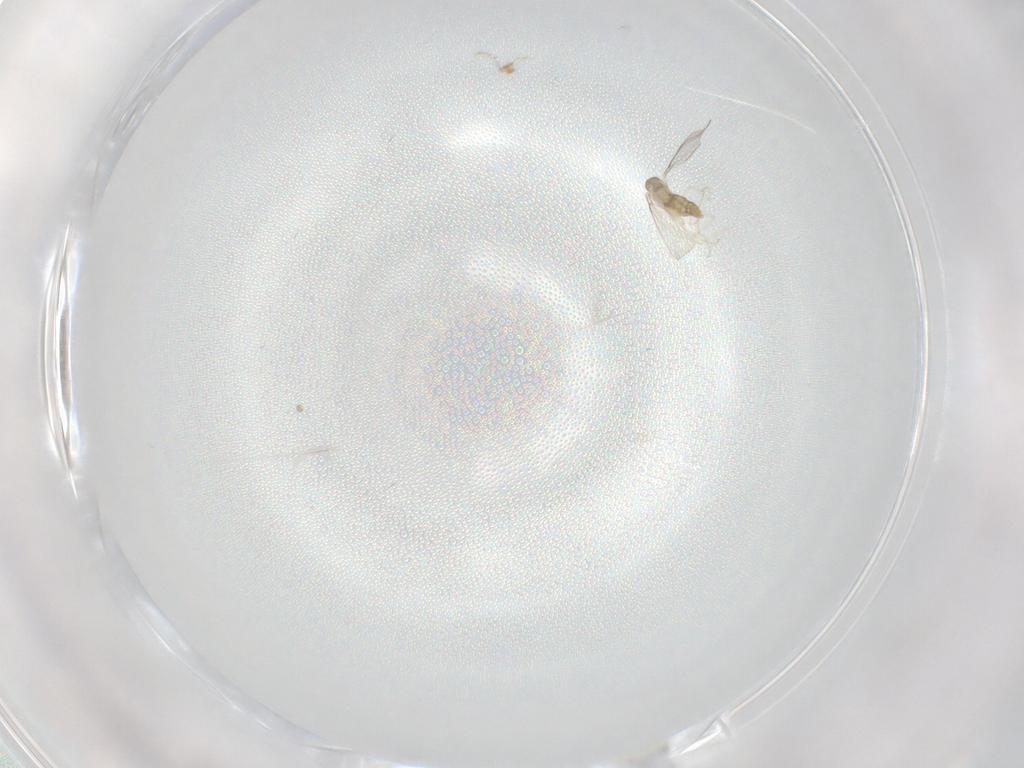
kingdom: Animalia
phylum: Arthropoda
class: Insecta
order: Diptera
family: Cecidomyiidae
